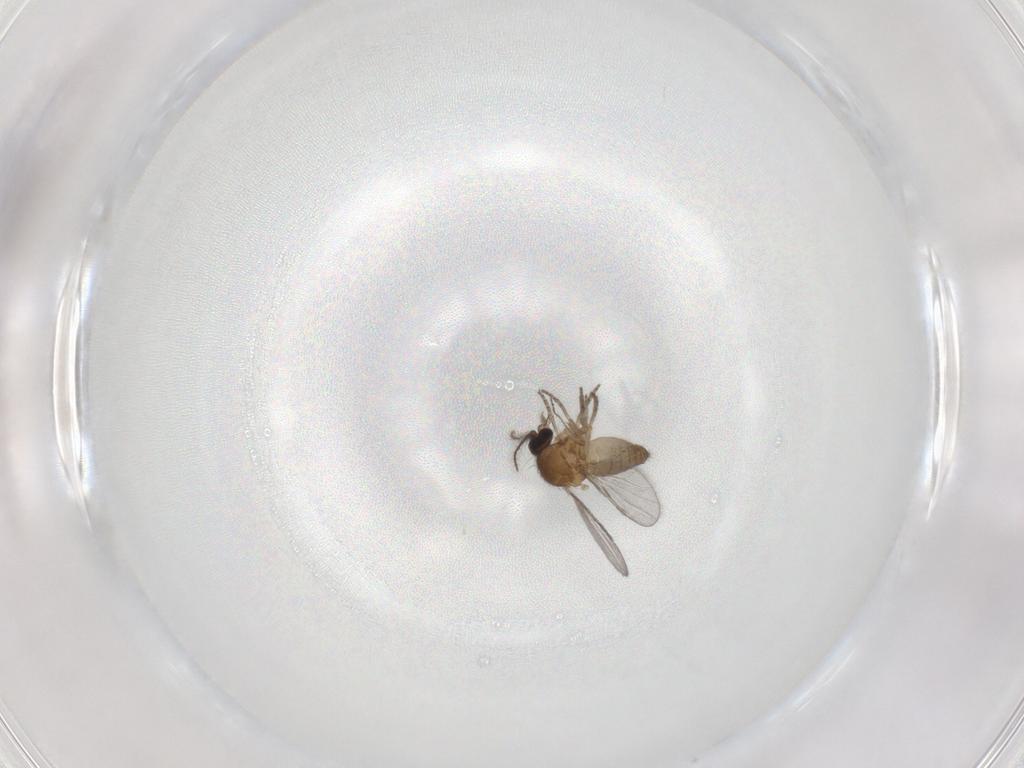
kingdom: Animalia
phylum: Arthropoda
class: Insecta
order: Diptera
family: Ceratopogonidae
